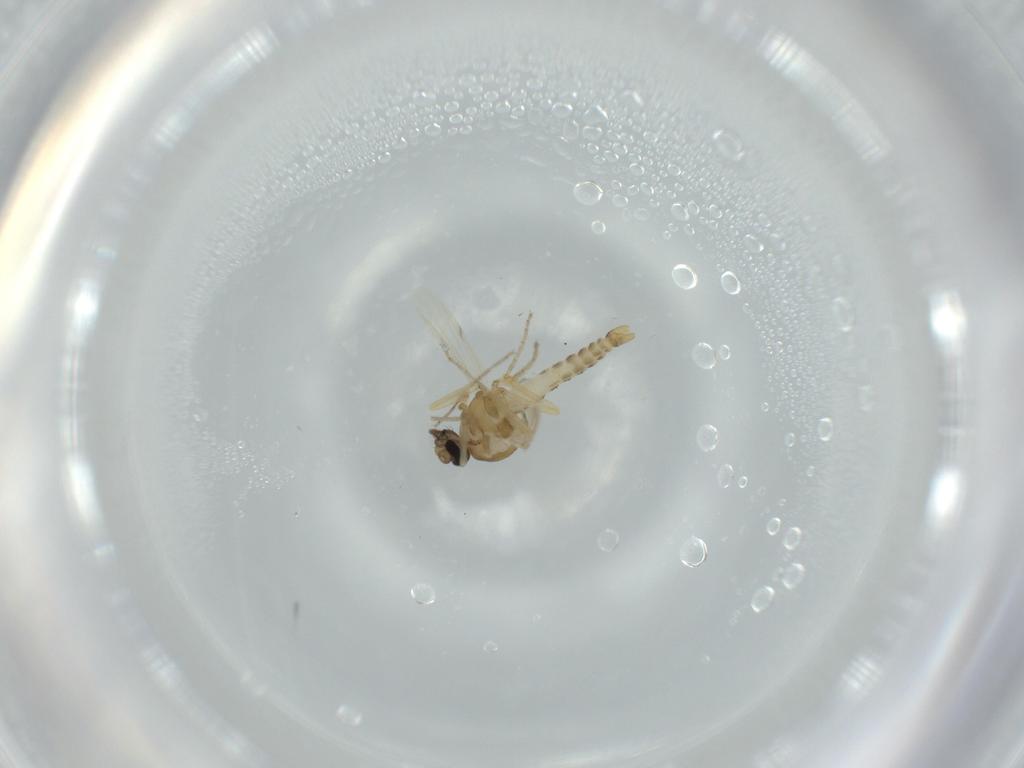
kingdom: Animalia
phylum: Arthropoda
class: Insecta
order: Diptera
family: Ceratopogonidae
